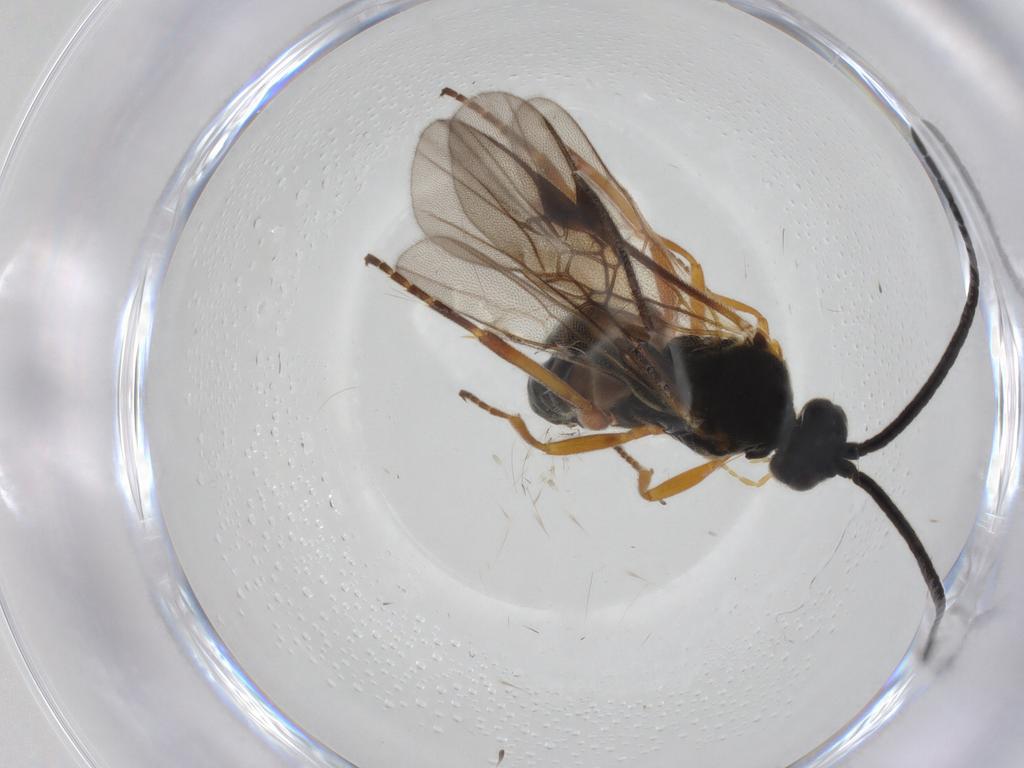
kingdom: Animalia
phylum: Arthropoda
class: Insecta
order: Hymenoptera
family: Braconidae
